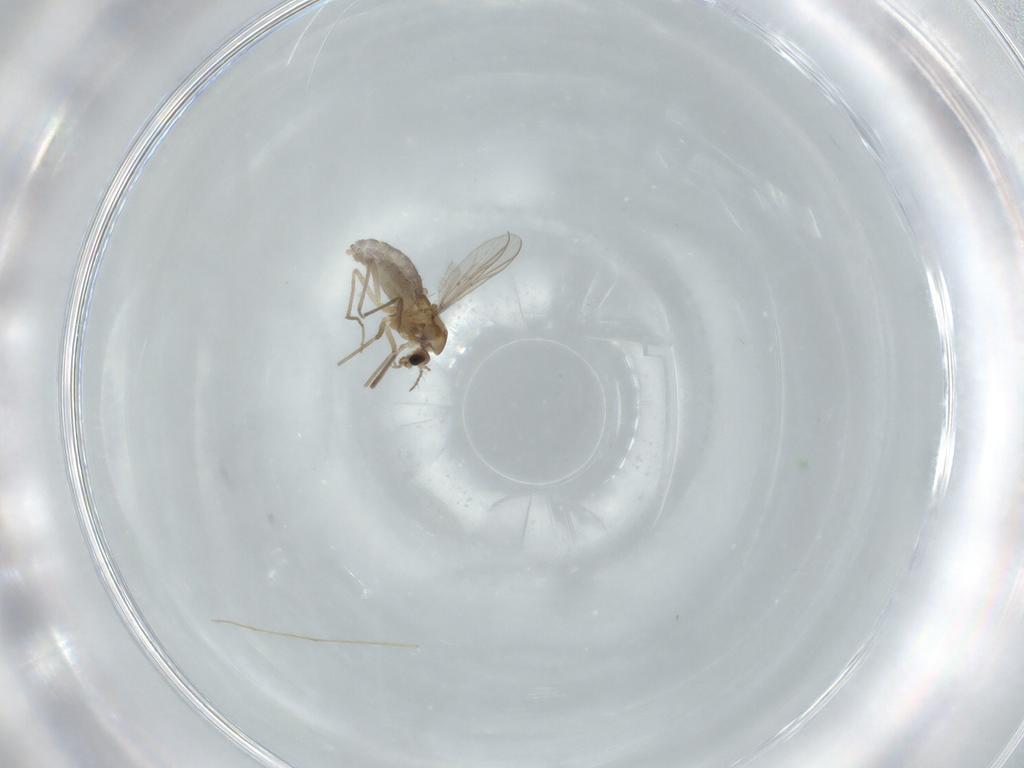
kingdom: Animalia
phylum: Arthropoda
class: Insecta
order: Diptera
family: Chironomidae
